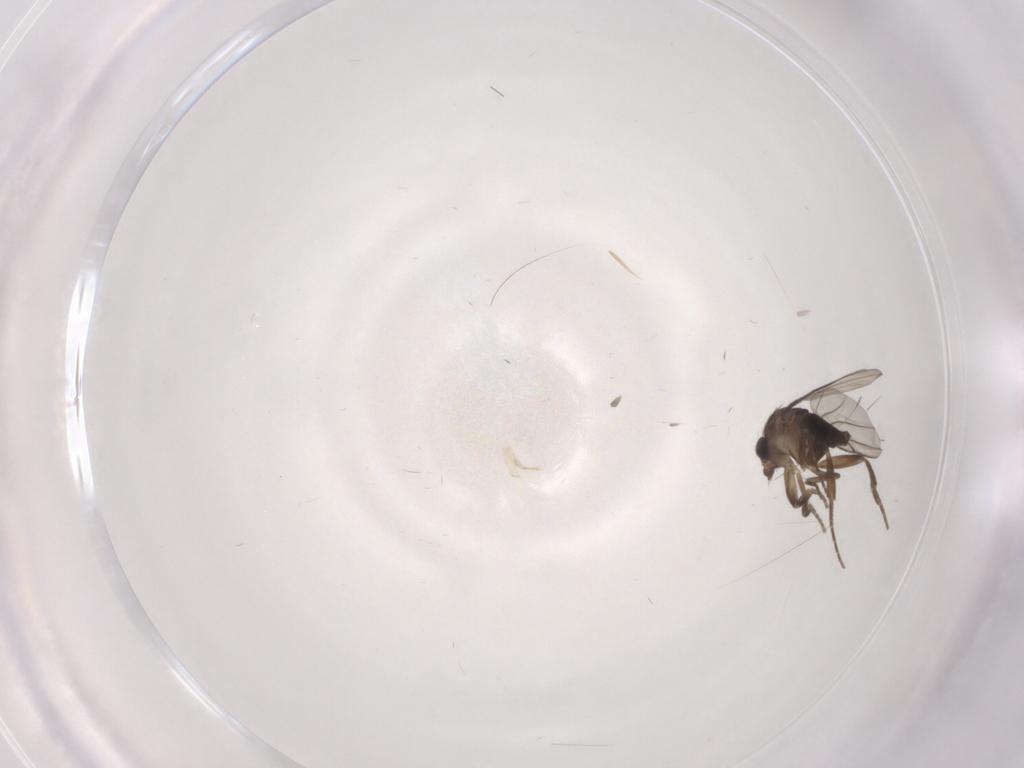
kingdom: Animalia
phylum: Arthropoda
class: Insecta
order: Diptera
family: Phoridae
